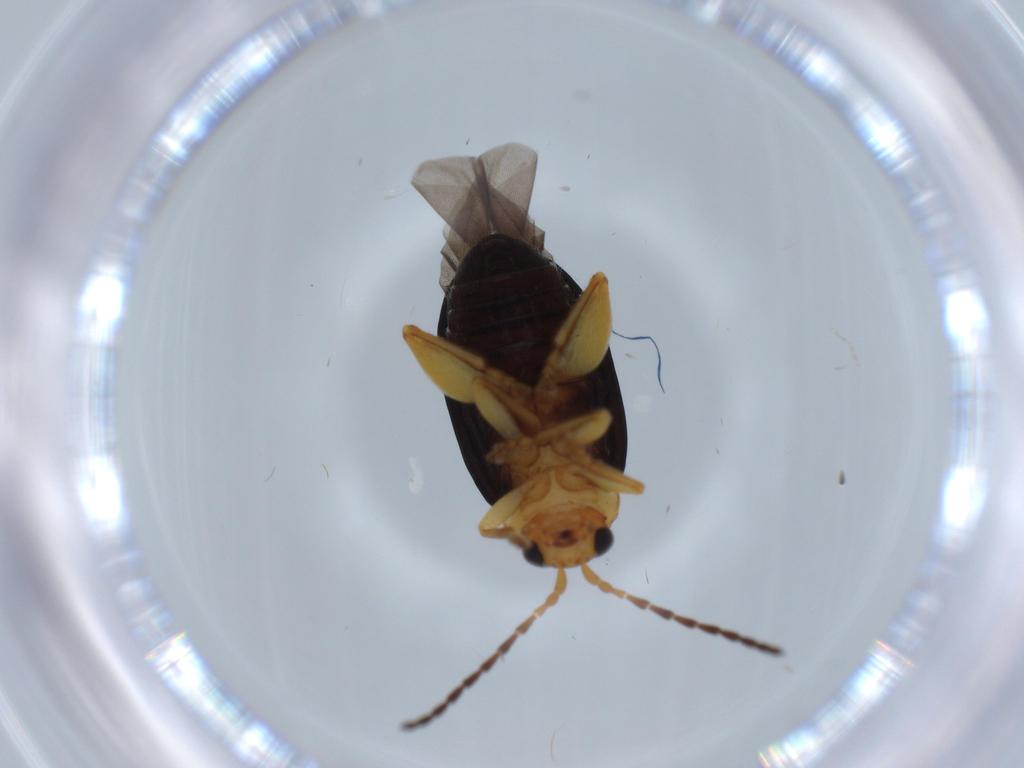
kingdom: Animalia
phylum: Arthropoda
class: Insecta
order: Coleoptera
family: Chrysomelidae
